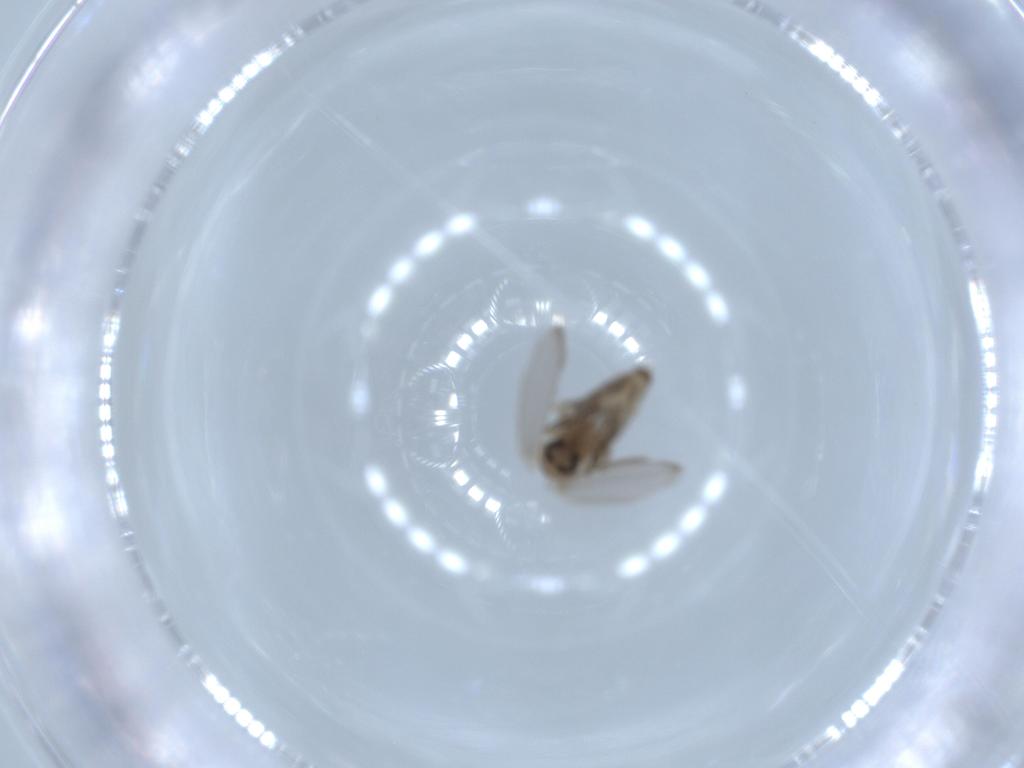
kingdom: Animalia
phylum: Arthropoda
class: Insecta
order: Diptera
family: Psychodidae
